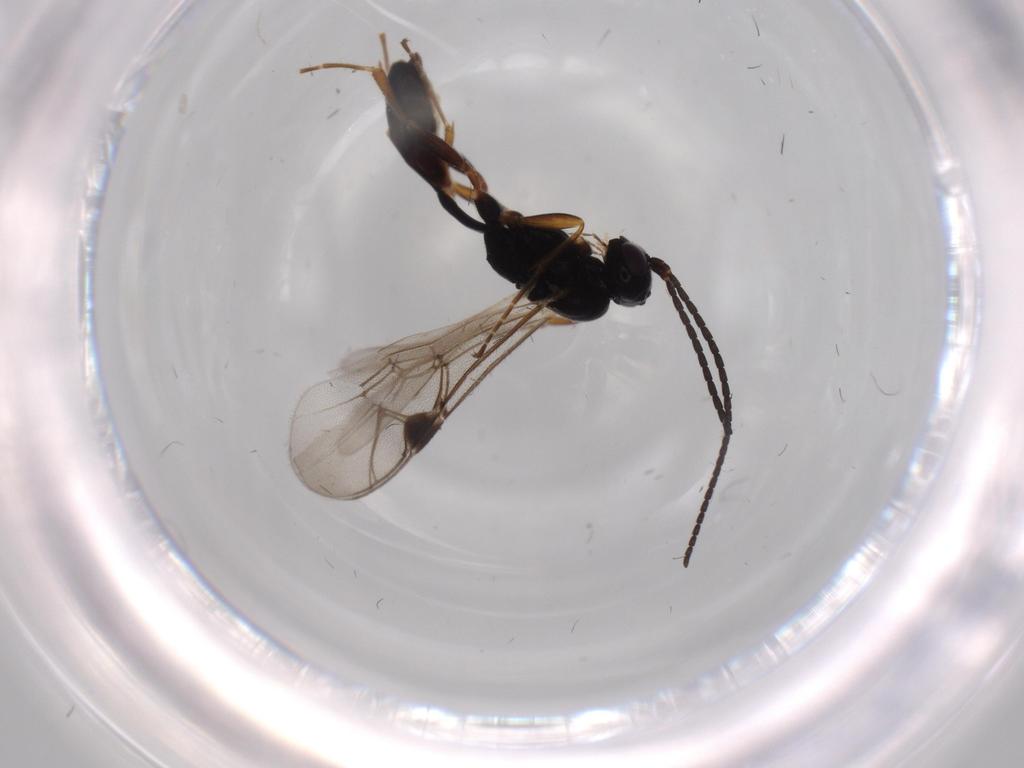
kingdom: Animalia
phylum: Arthropoda
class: Insecta
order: Hymenoptera
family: Ichneumonidae
